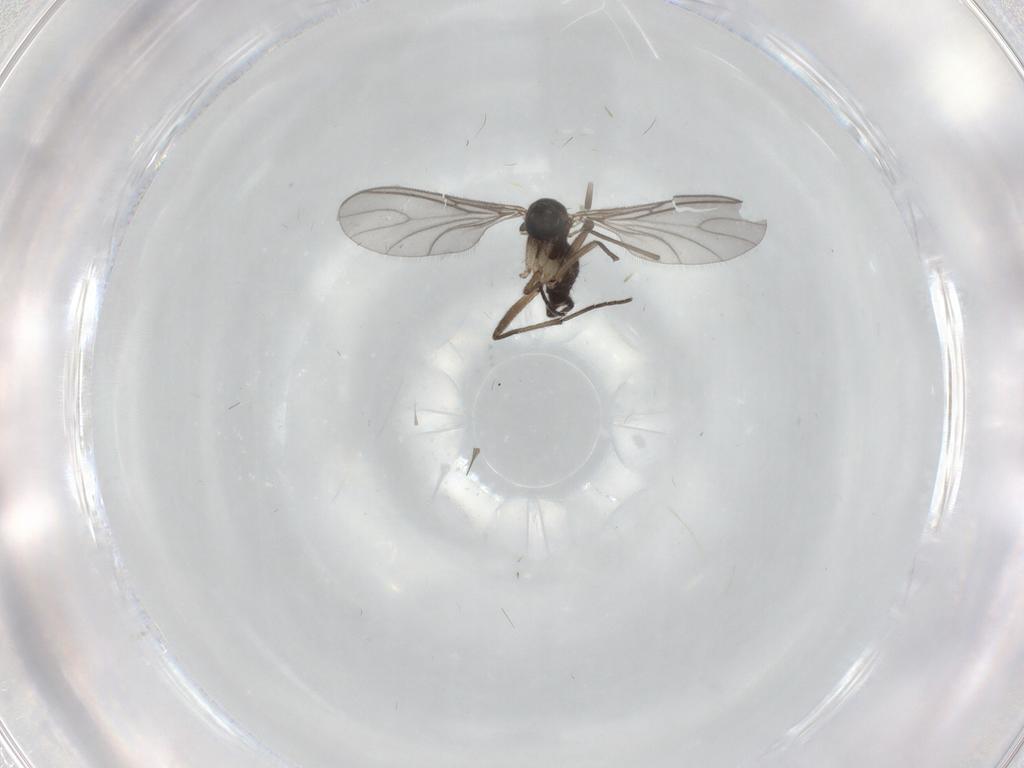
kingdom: Animalia
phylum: Arthropoda
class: Insecta
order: Diptera
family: Sciaridae
